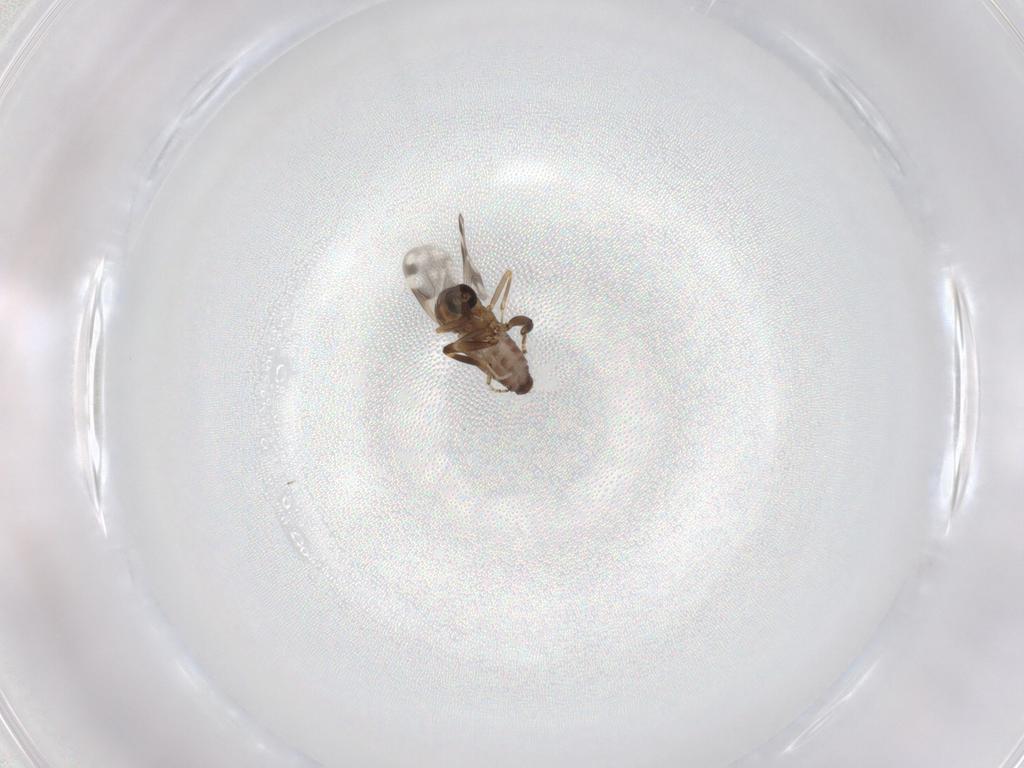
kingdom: Animalia
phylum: Arthropoda
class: Insecta
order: Diptera
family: Ceratopogonidae
